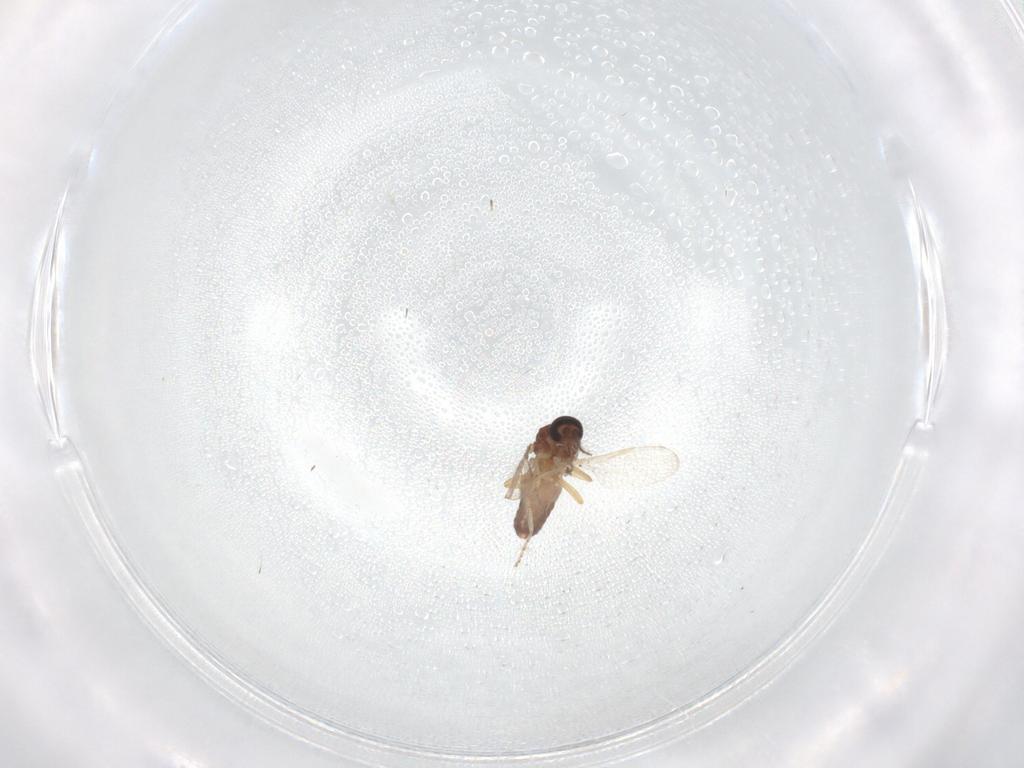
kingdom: Animalia
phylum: Arthropoda
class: Insecta
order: Diptera
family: Ceratopogonidae
